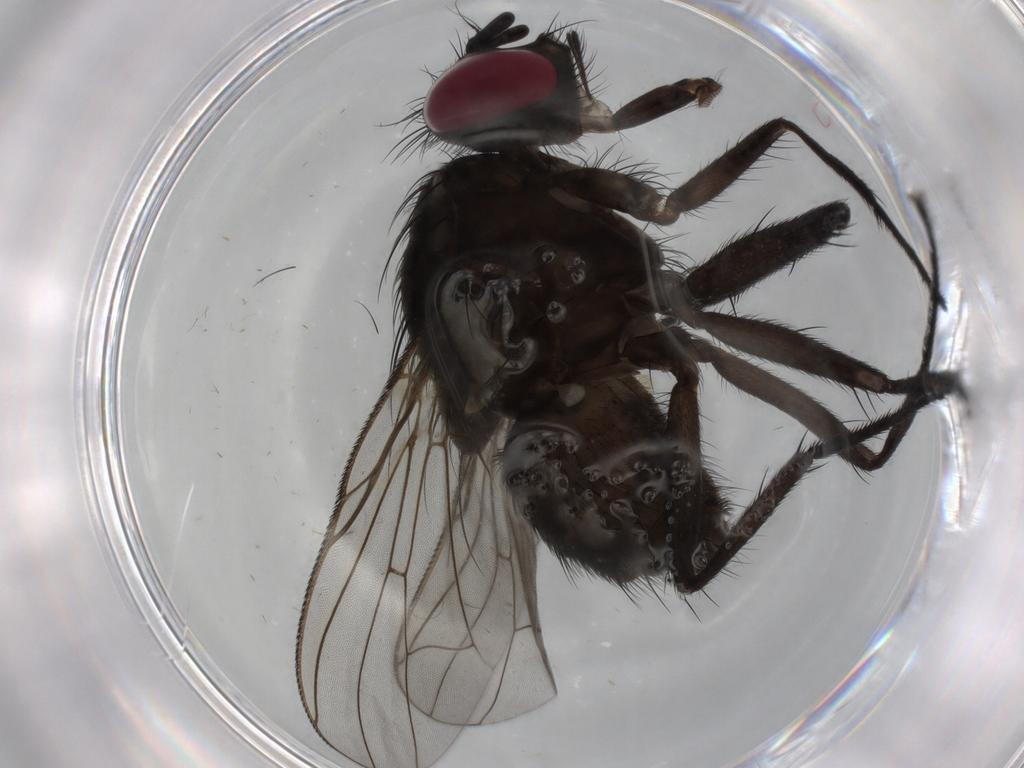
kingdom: Animalia
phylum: Arthropoda
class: Insecta
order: Diptera
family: Muscidae
